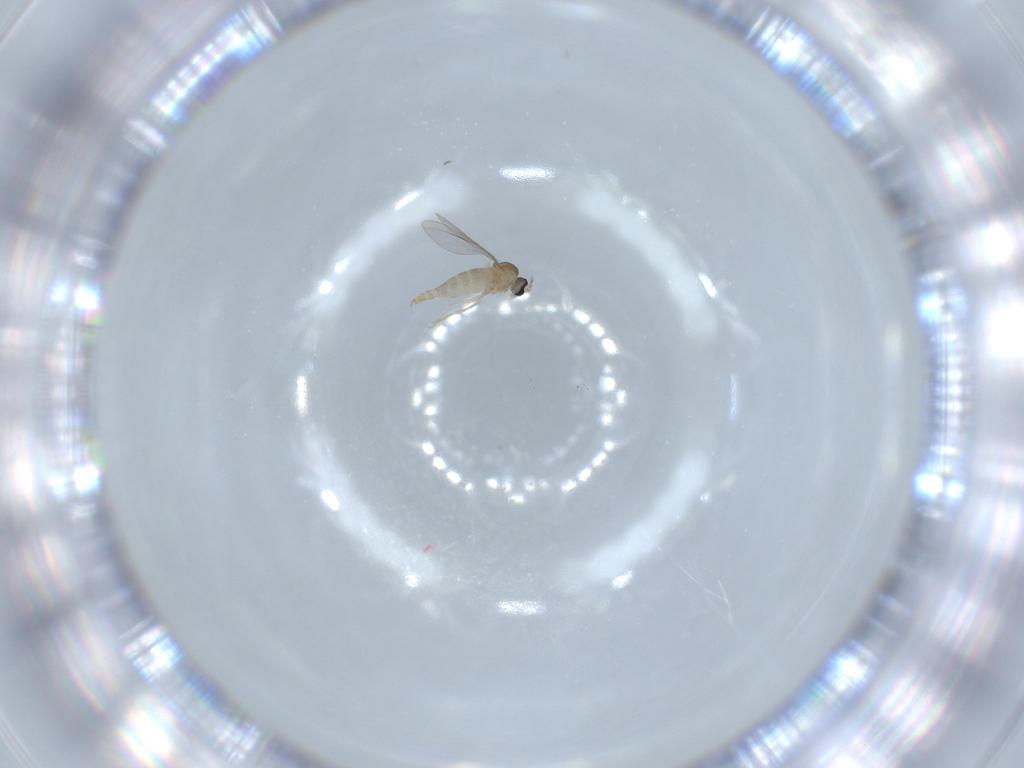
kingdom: Animalia
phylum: Arthropoda
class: Insecta
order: Diptera
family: Cecidomyiidae
